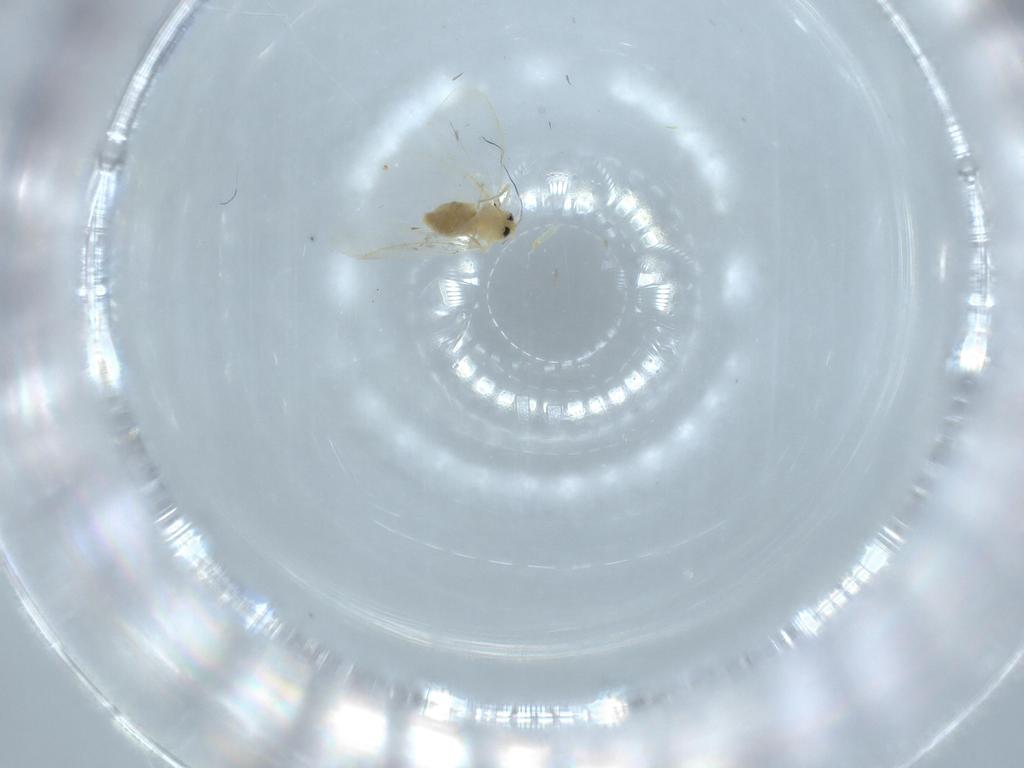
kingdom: Animalia
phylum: Arthropoda
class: Insecta
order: Hemiptera
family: Aleyrodidae
